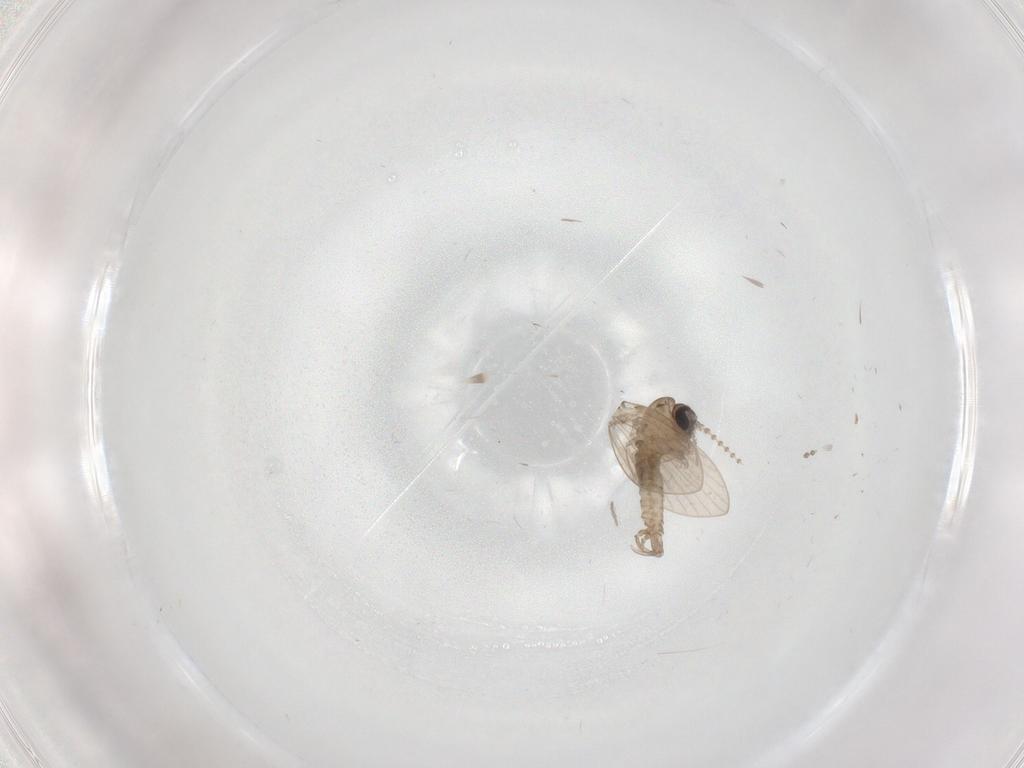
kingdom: Animalia
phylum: Arthropoda
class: Insecta
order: Diptera
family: Psychodidae
